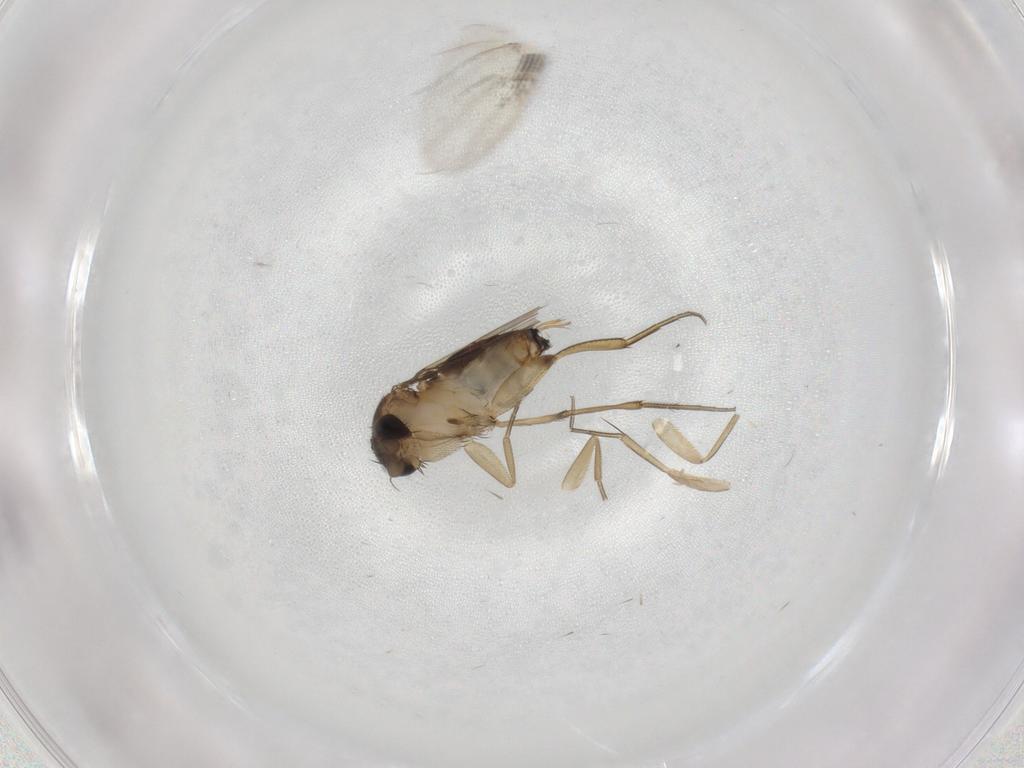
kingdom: Animalia
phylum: Arthropoda
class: Insecta
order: Diptera
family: Phoridae
